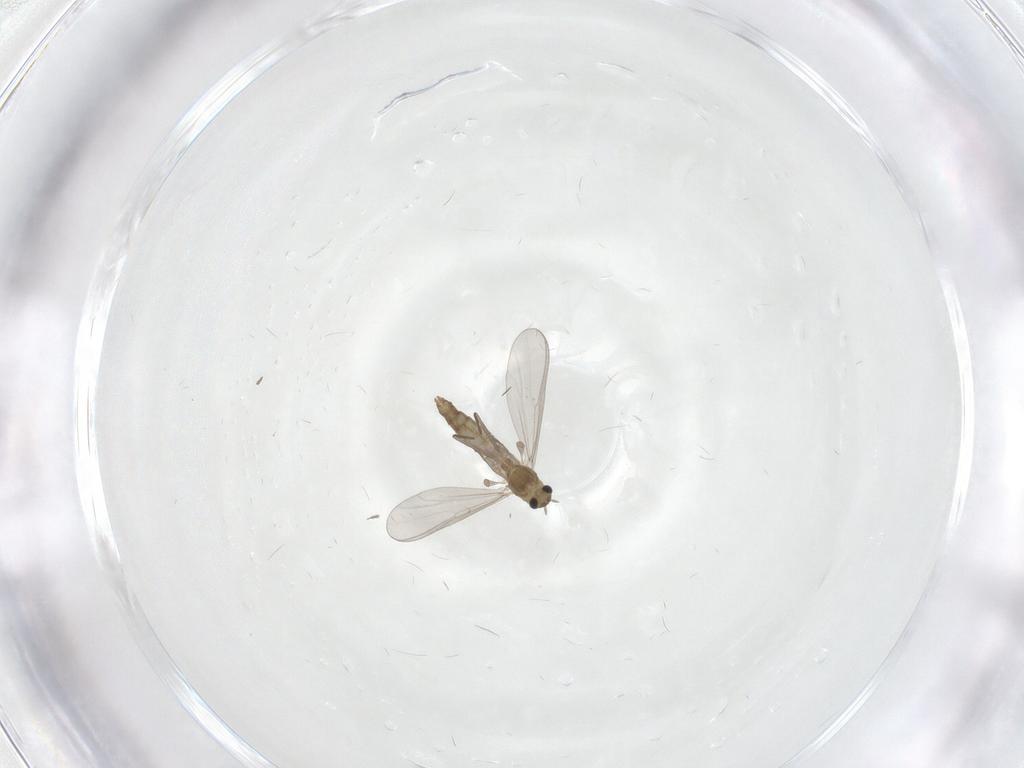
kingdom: Animalia
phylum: Arthropoda
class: Insecta
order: Diptera
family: Chironomidae
